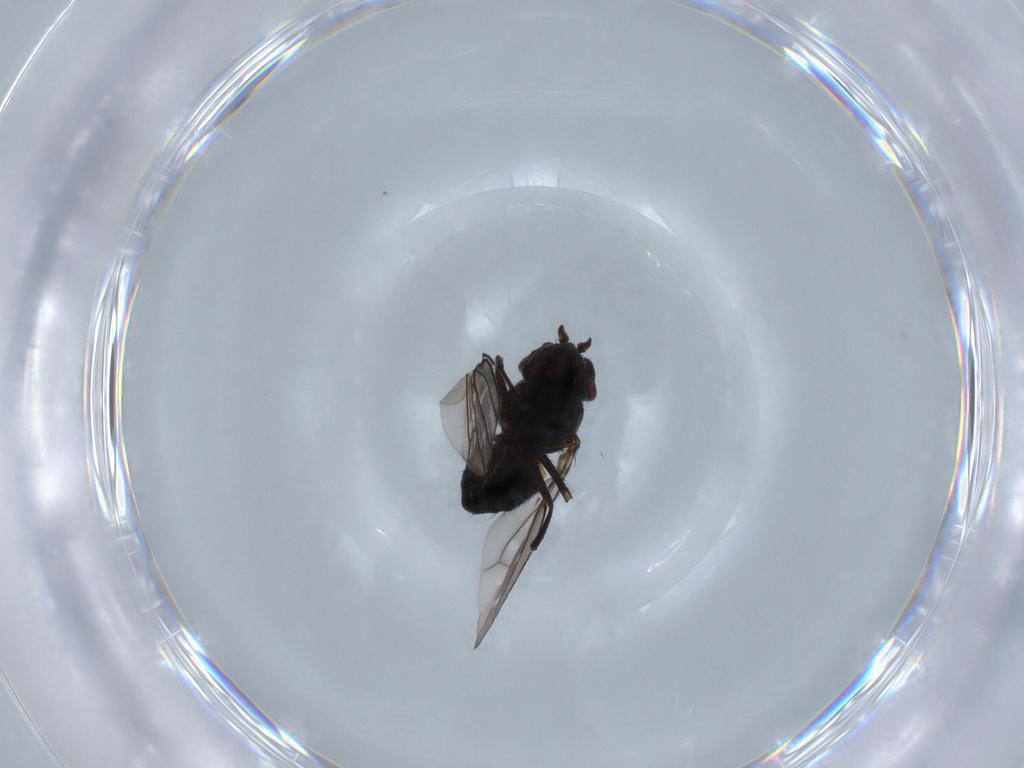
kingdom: Animalia
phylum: Arthropoda
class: Insecta
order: Diptera
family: Ephydridae
